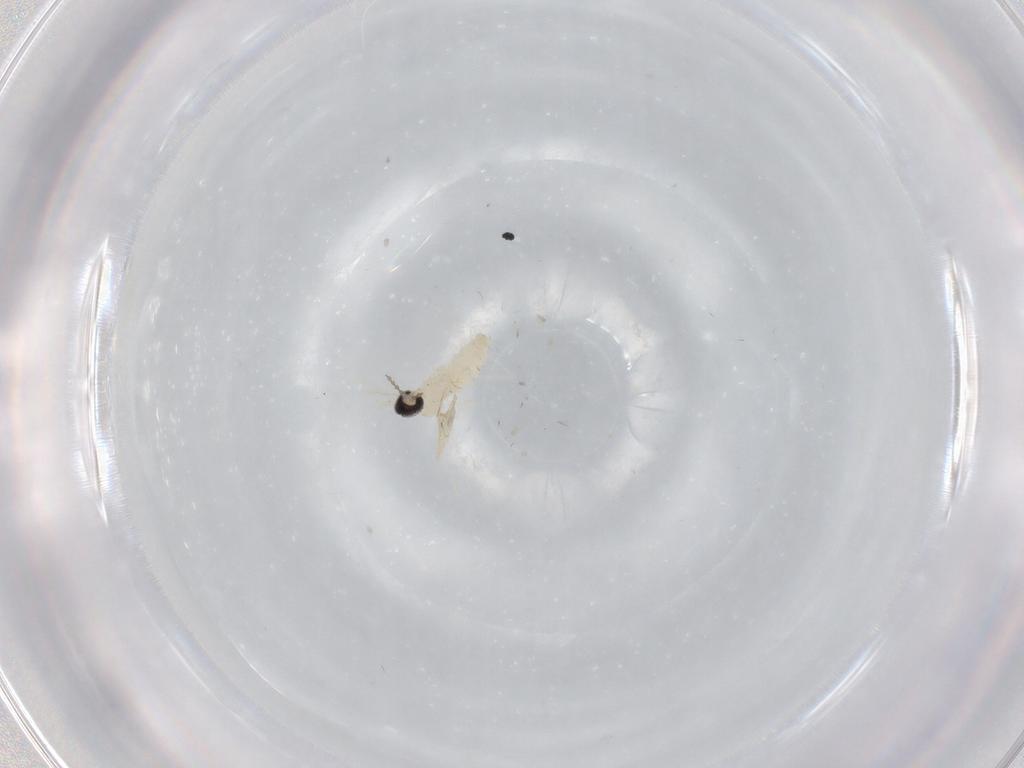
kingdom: Animalia
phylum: Arthropoda
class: Insecta
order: Diptera
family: Cecidomyiidae
